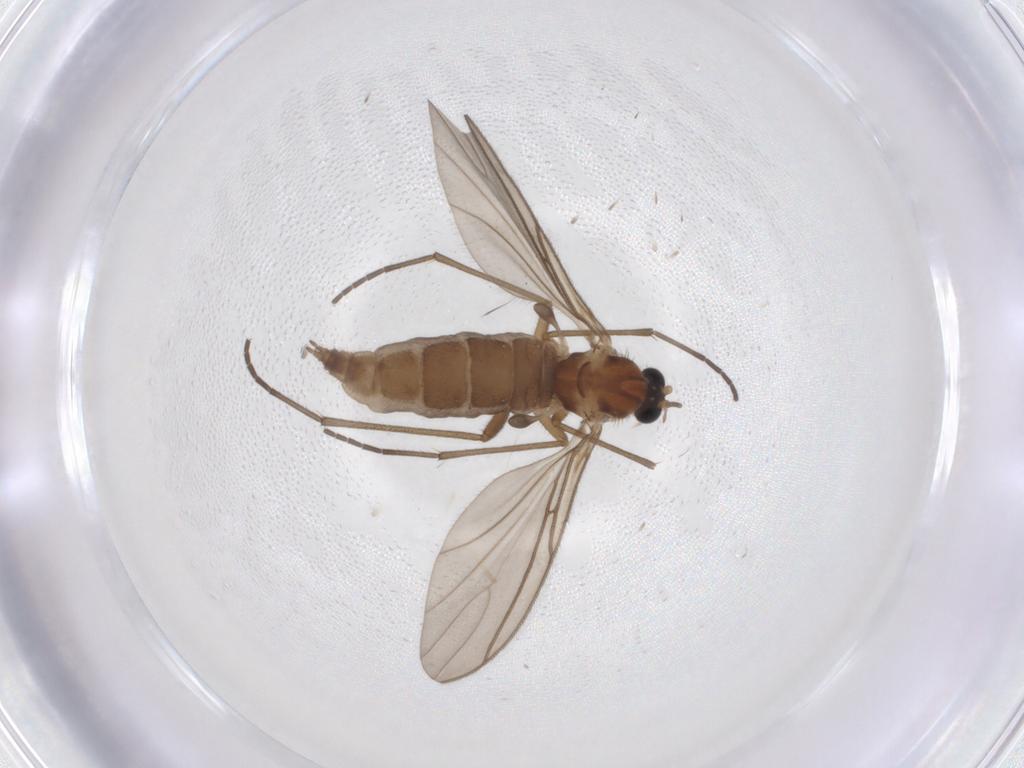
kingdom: Animalia
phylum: Arthropoda
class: Insecta
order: Diptera
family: Sciaridae
